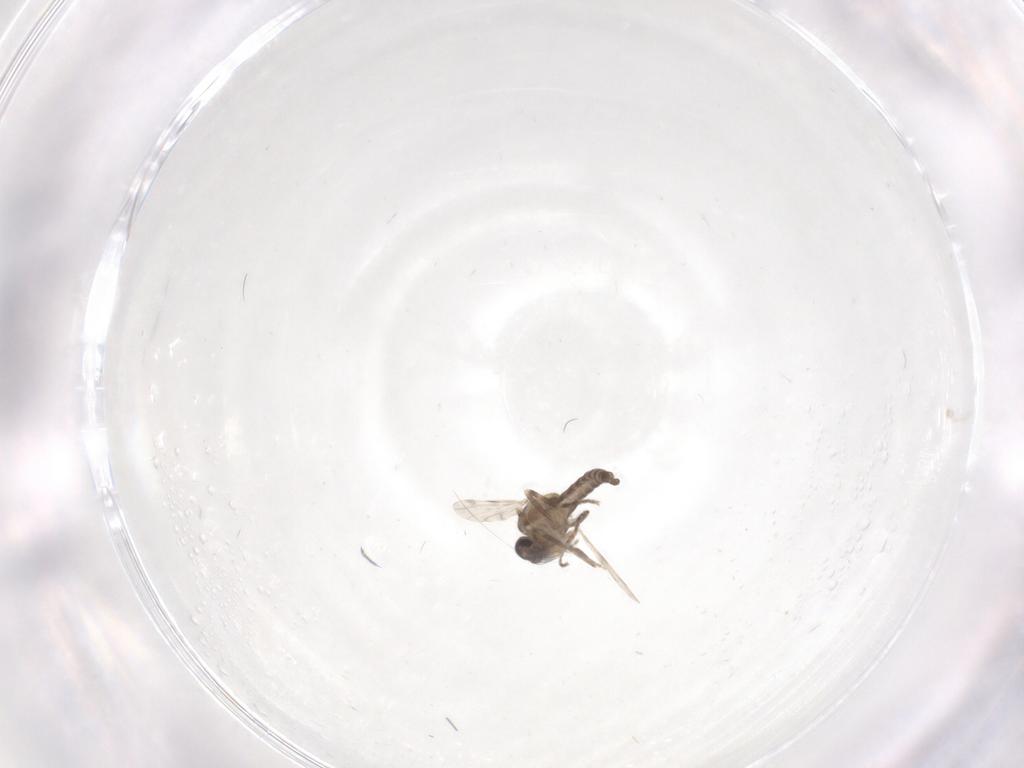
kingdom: Animalia
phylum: Arthropoda
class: Insecta
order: Diptera
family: Ceratopogonidae
